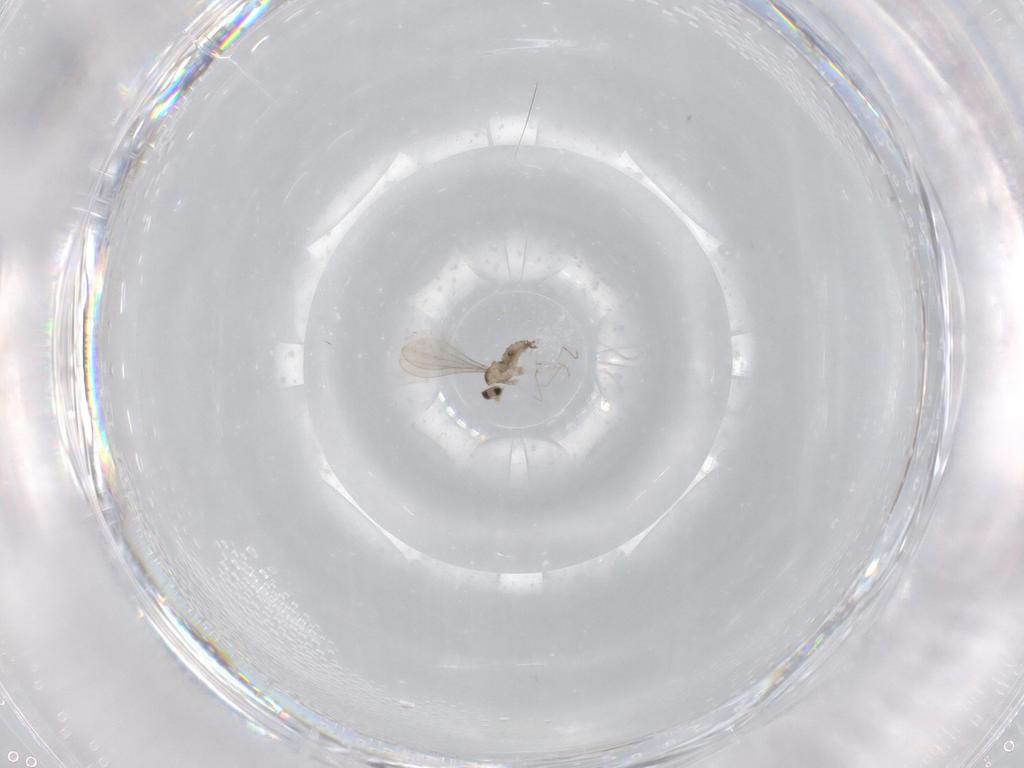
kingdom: Animalia
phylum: Arthropoda
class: Insecta
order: Diptera
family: Cecidomyiidae
